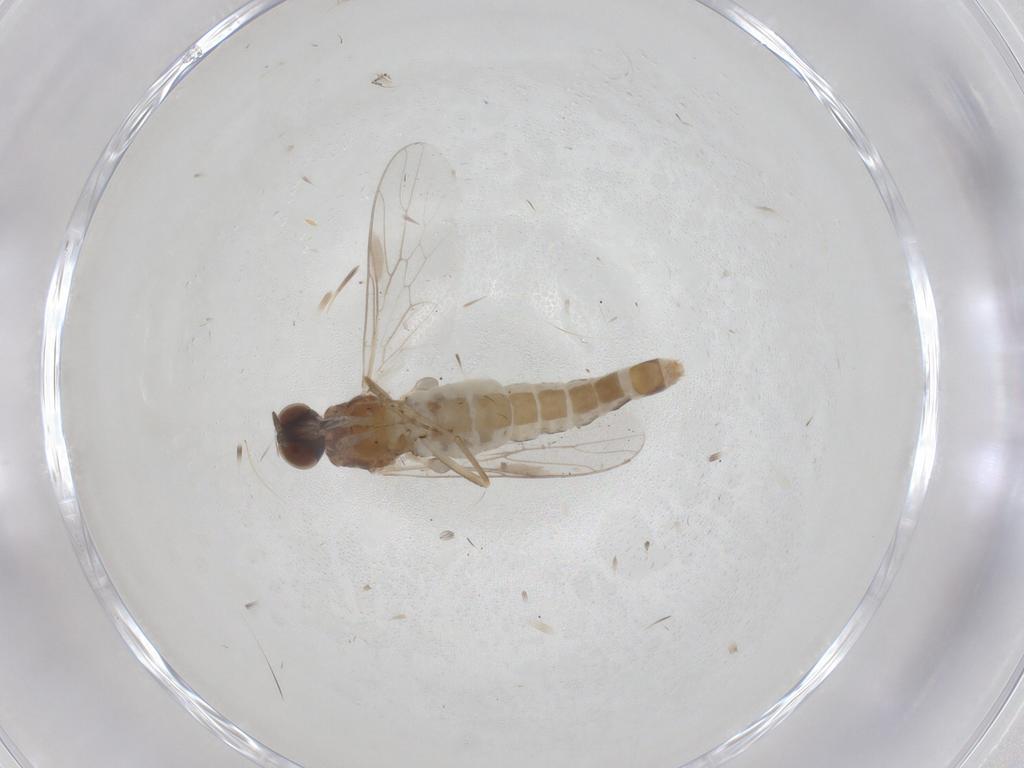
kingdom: Animalia
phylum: Arthropoda
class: Insecta
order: Diptera
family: Scenopinidae
